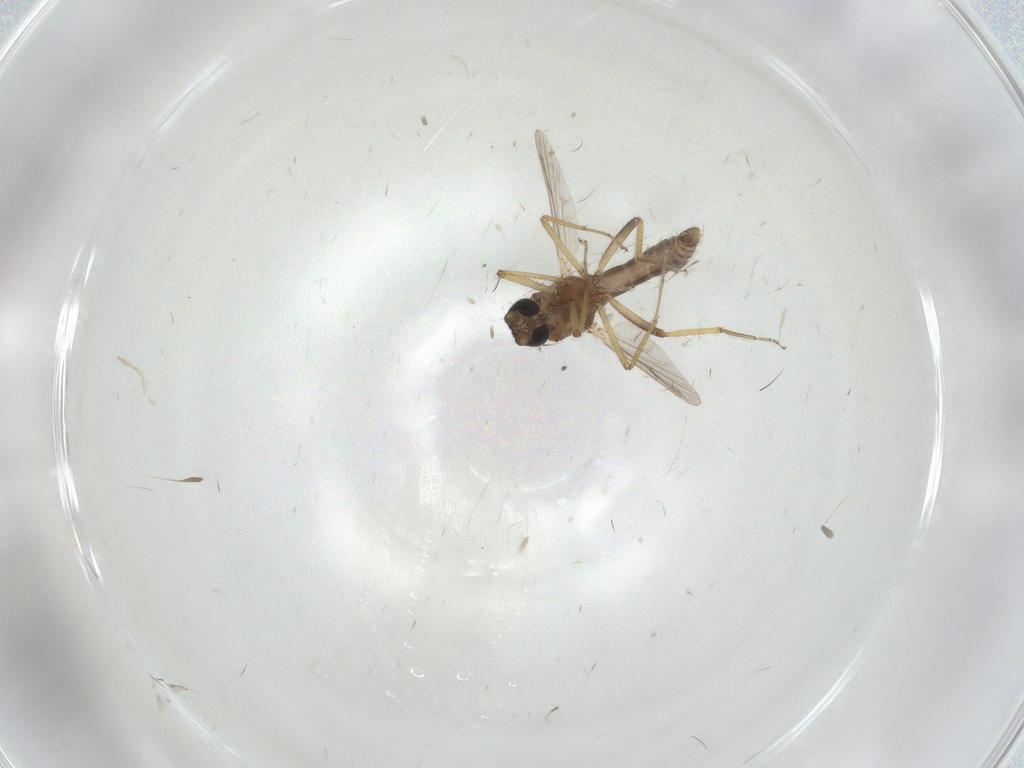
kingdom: Animalia
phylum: Arthropoda
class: Insecta
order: Diptera
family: Ceratopogonidae
